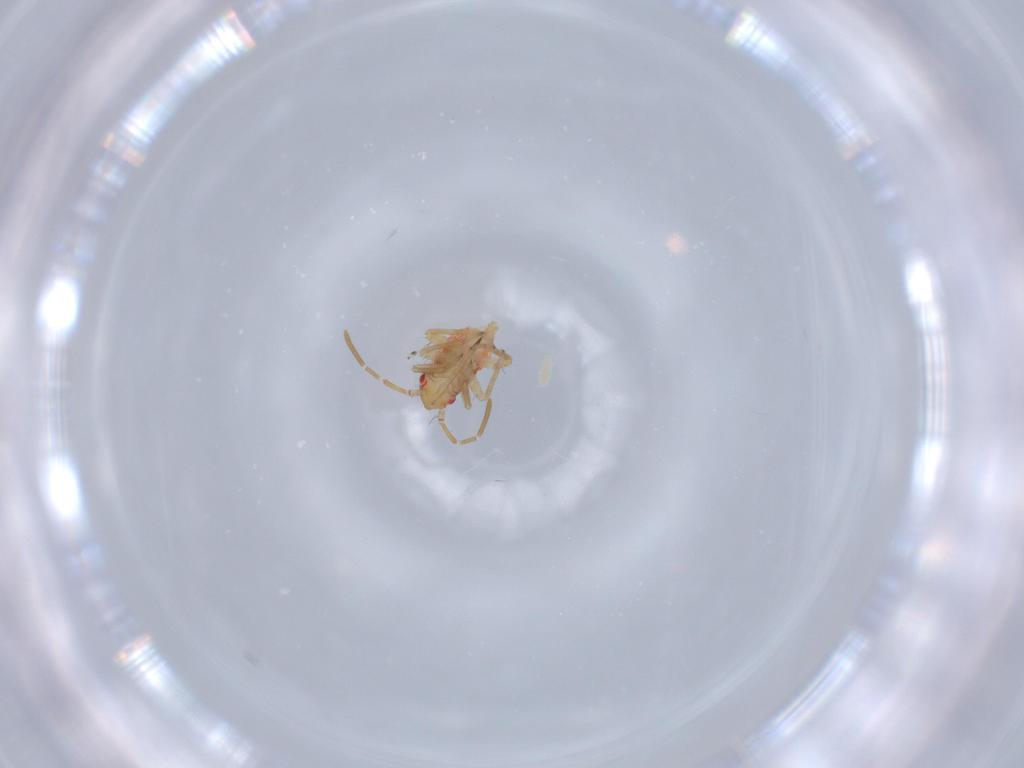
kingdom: Animalia
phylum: Arthropoda
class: Insecta
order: Hemiptera
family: Miridae
